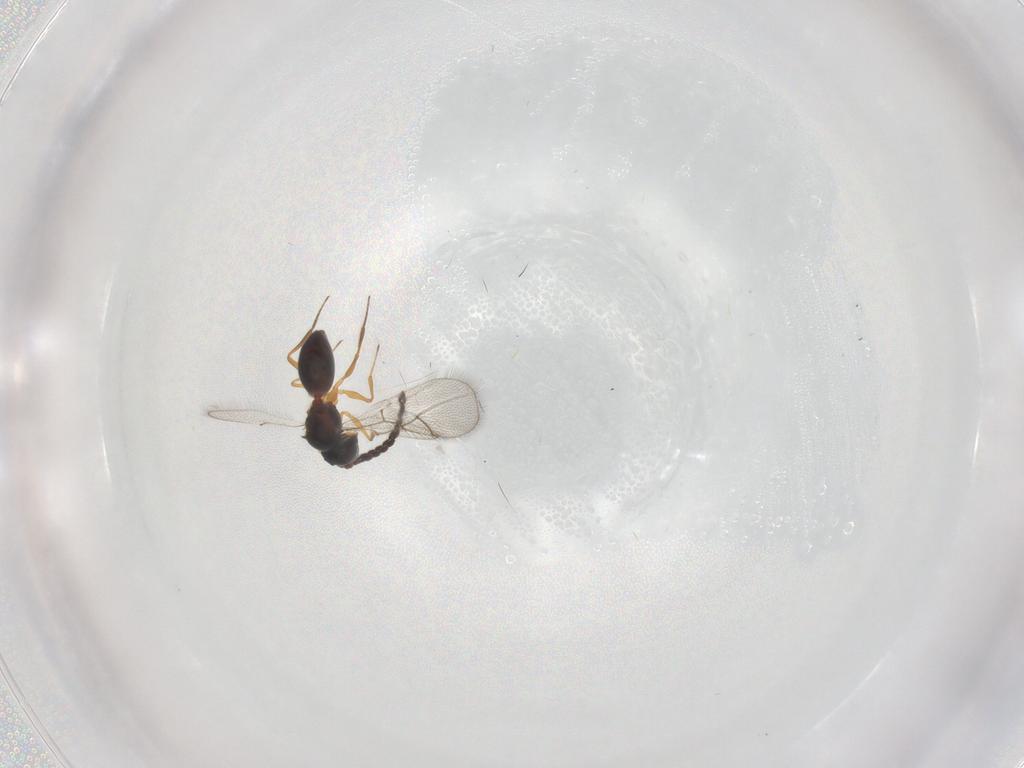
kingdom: Animalia
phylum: Arthropoda
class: Insecta
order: Hymenoptera
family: Figitidae
